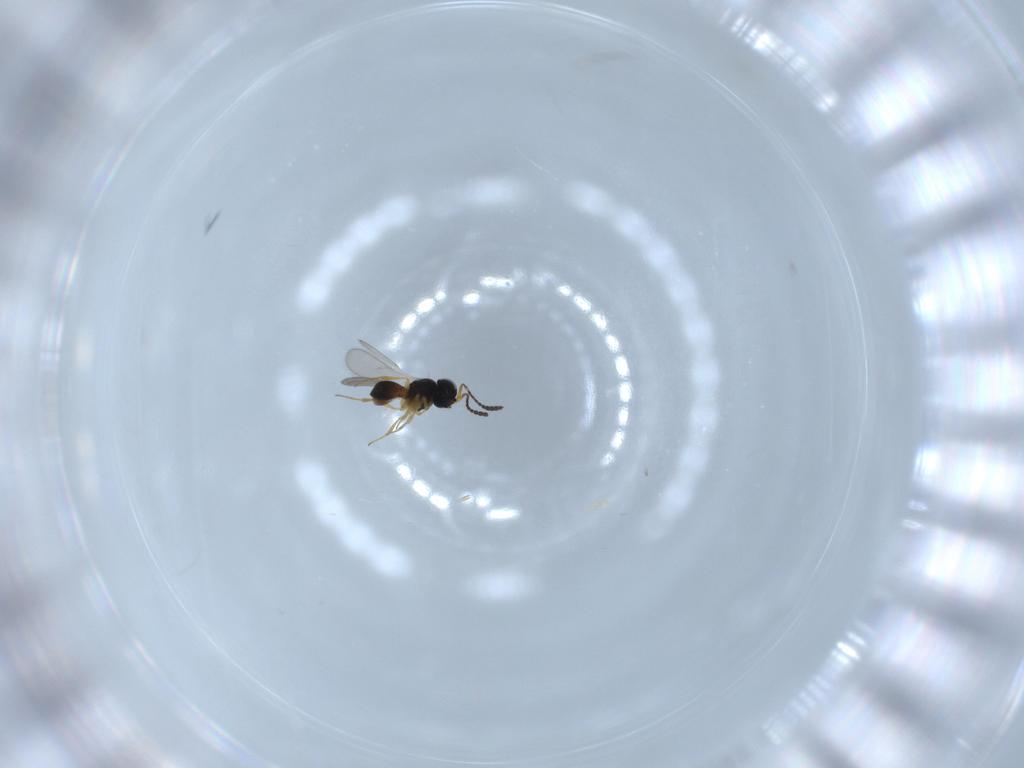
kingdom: Animalia
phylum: Arthropoda
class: Insecta
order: Hymenoptera
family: Scelionidae
